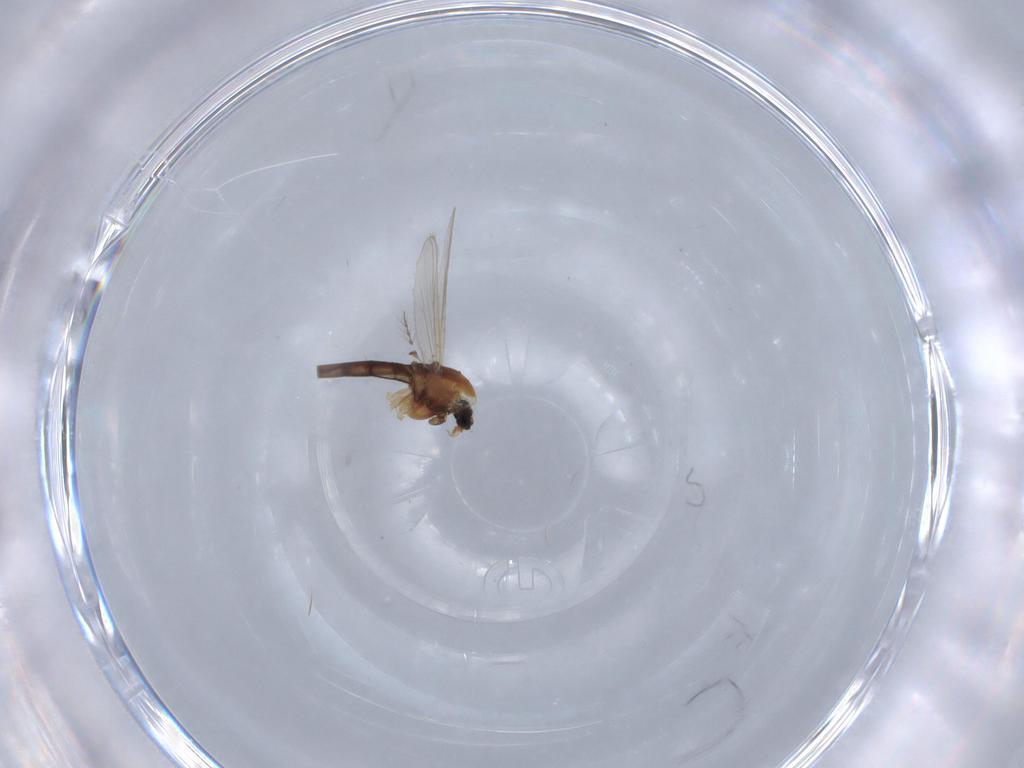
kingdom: Animalia
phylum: Arthropoda
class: Insecta
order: Diptera
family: Chironomidae
